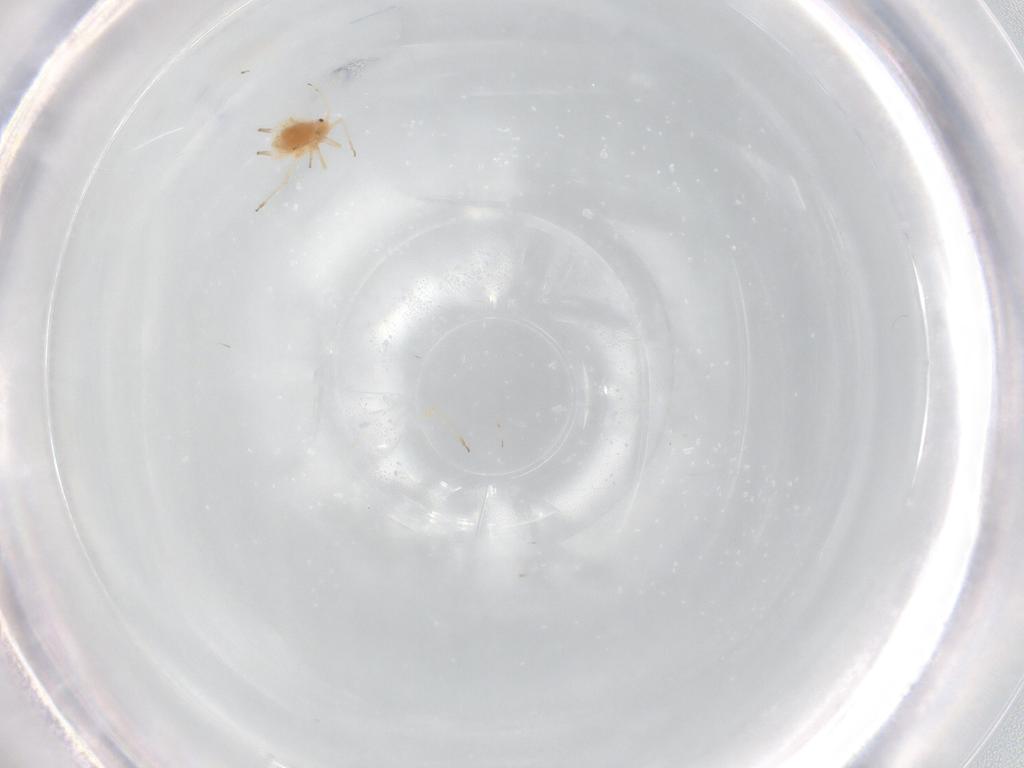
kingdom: Animalia
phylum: Arthropoda
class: Insecta
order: Hemiptera
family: Aphididae
